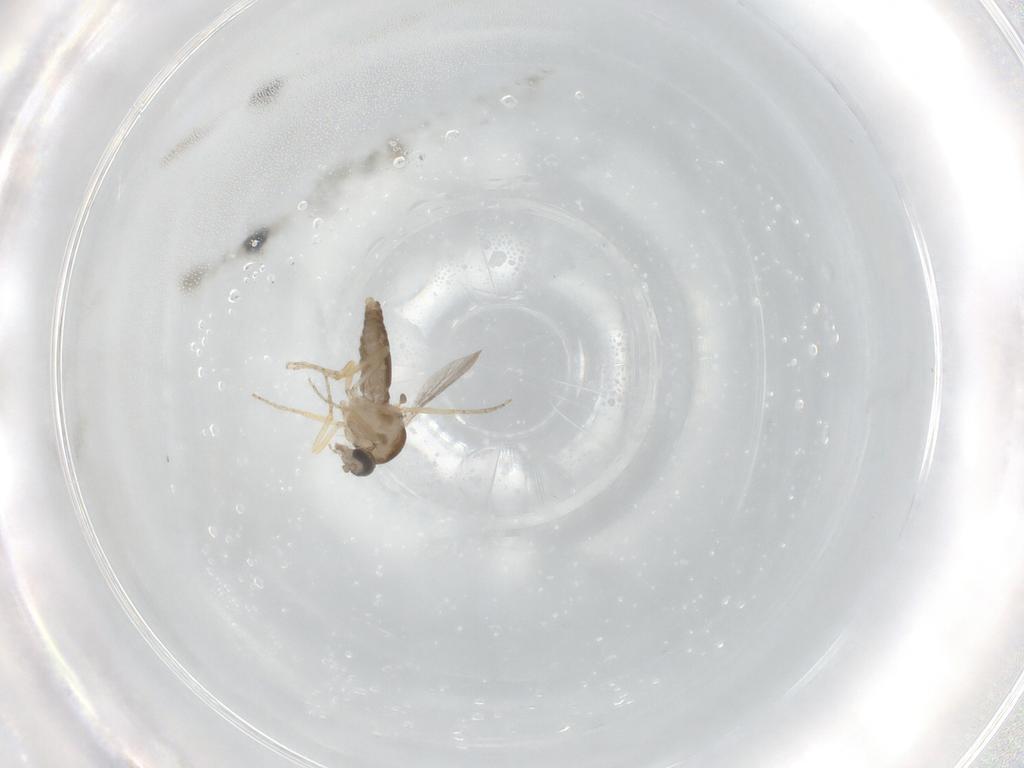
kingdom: Animalia
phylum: Arthropoda
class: Insecta
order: Diptera
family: Ceratopogonidae
